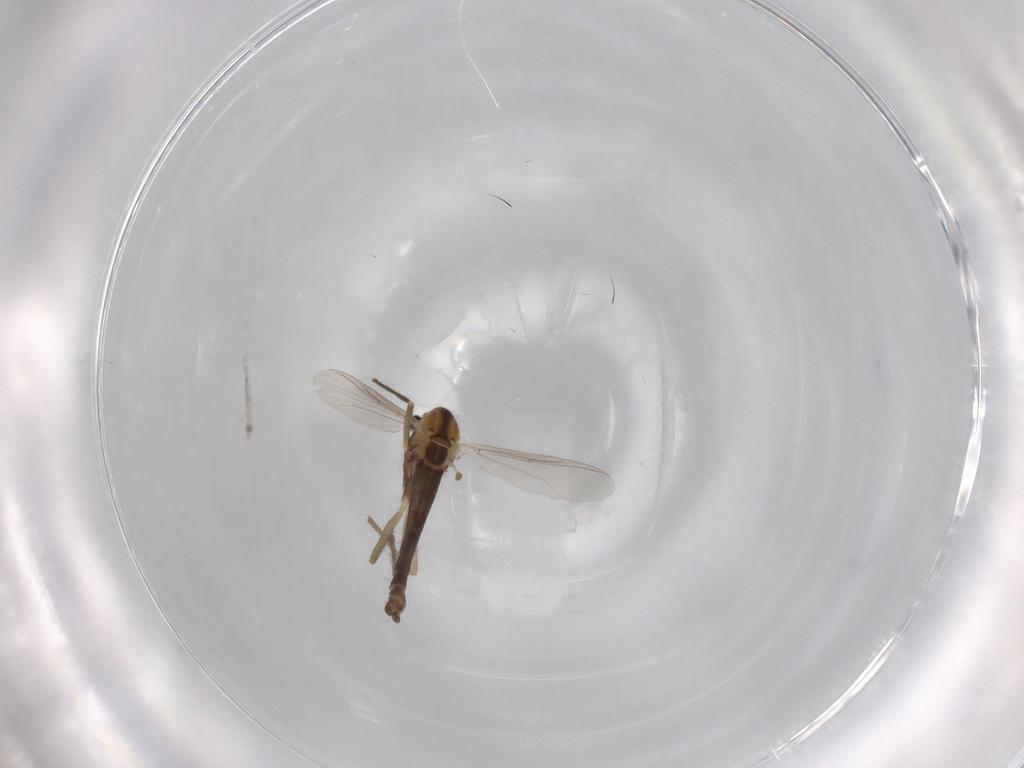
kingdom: Animalia
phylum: Arthropoda
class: Insecta
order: Diptera
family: Chironomidae
